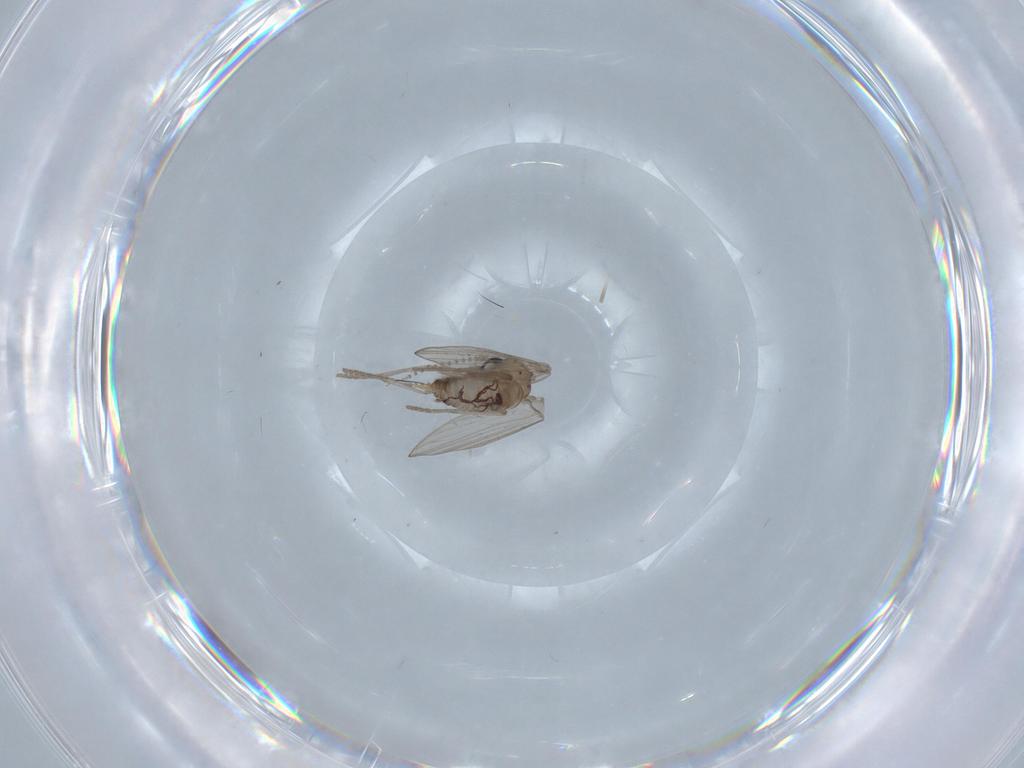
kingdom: Animalia
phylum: Arthropoda
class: Insecta
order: Diptera
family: Psychodidae
